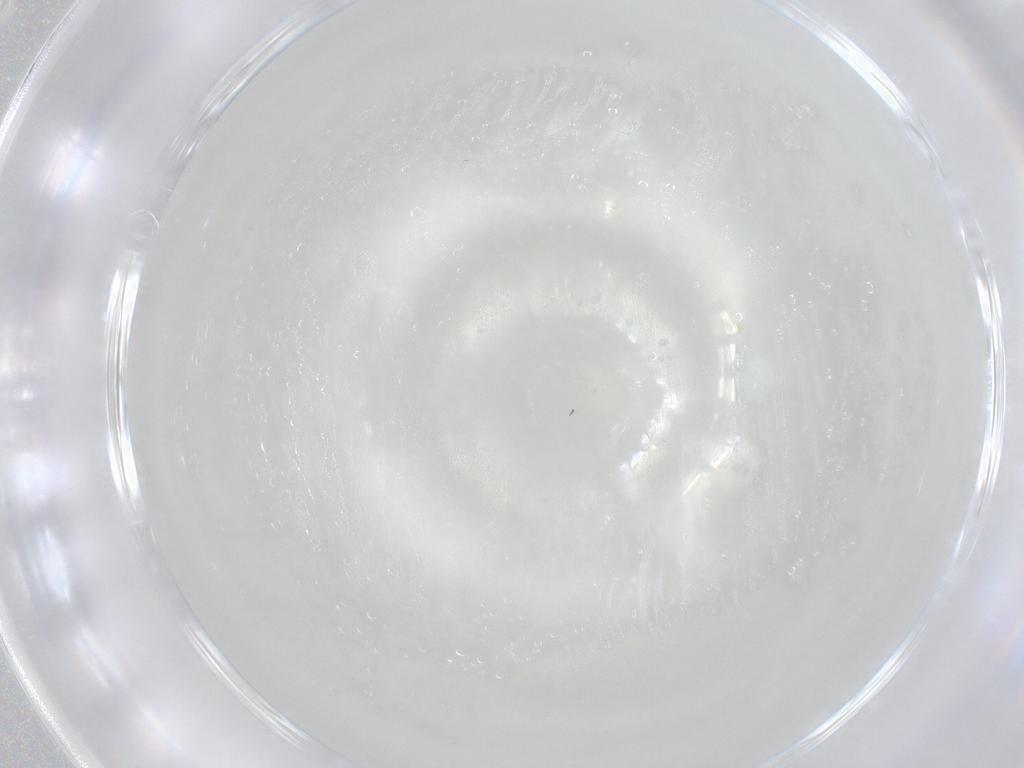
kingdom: Animalia
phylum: Arthropoda
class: Arachnida
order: Trombidiformes
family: Anystidae
